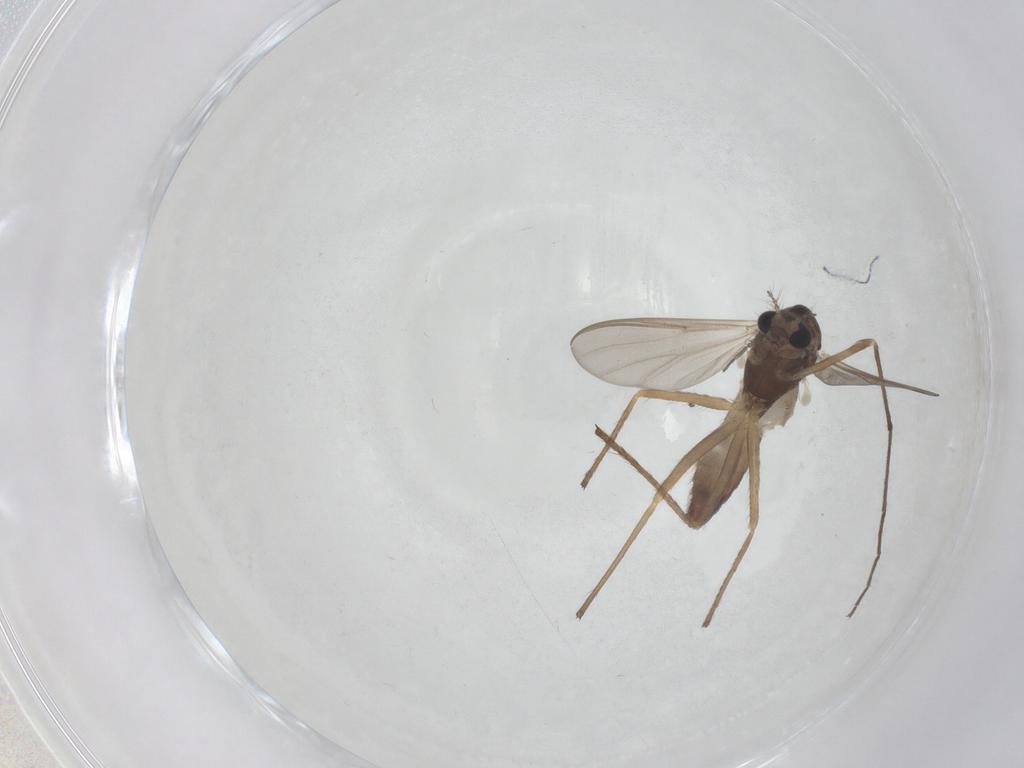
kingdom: Animalia
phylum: Arthropoda
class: Insecta
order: Diptera
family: Chironomidae
